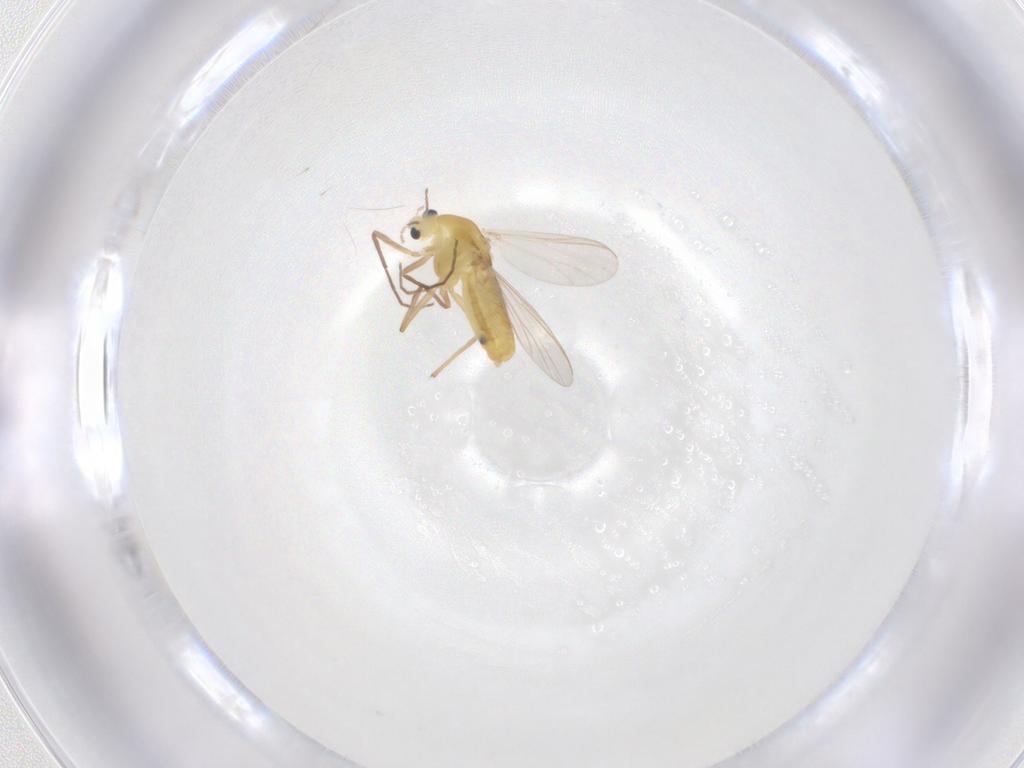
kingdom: Animalia
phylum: Arthropoda
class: Insecta
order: Diptera
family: Chironomidae
